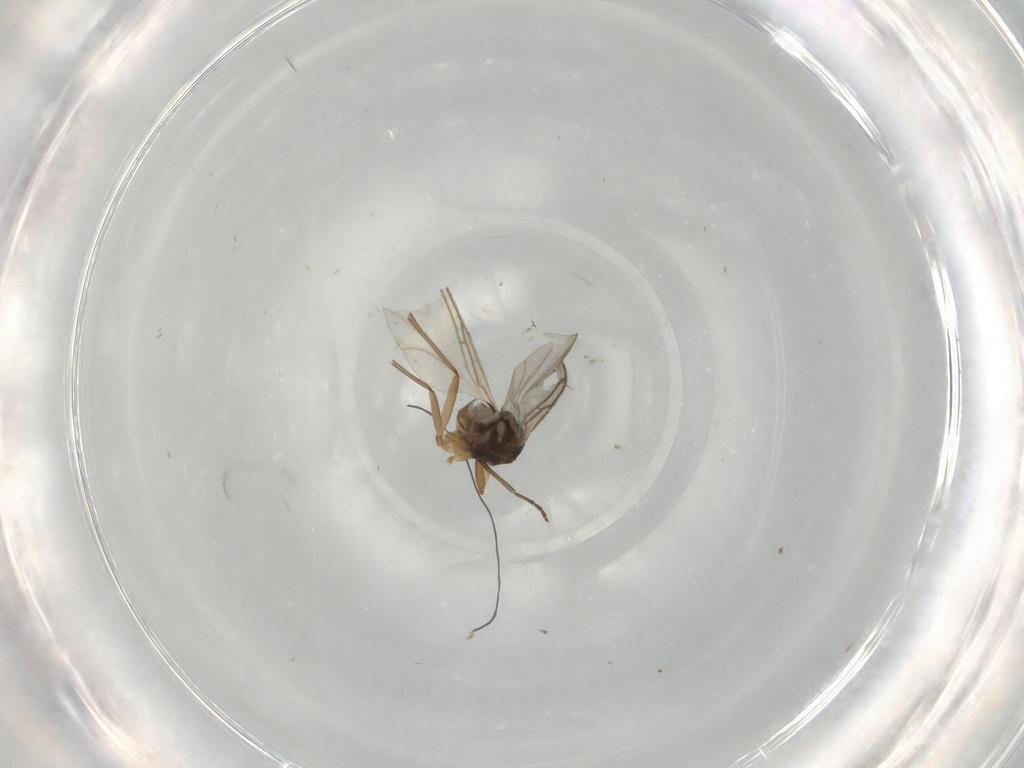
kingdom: Animalia
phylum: Arthropoda
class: Insecta
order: Diptera
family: Sciaridae
